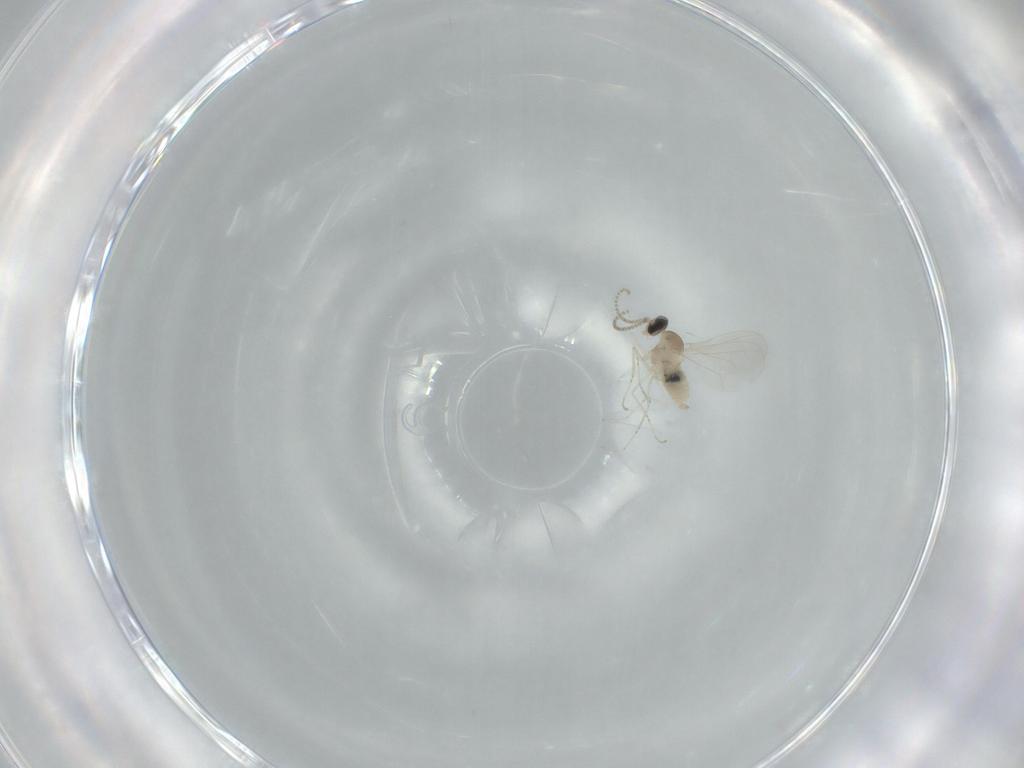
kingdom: Animalia
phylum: Arthropoda
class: Insecta
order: Diptera
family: Cecidomyiidae
